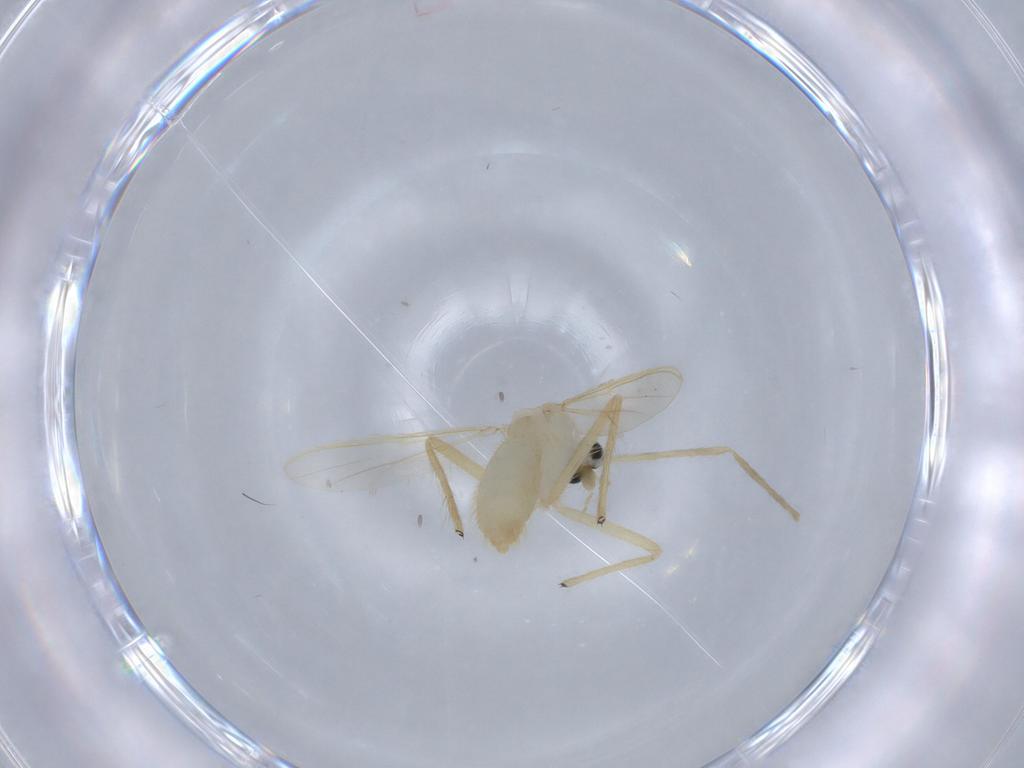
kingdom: Animalia
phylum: Arthropoda
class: Insecta
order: Diptera
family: Chironomidae
